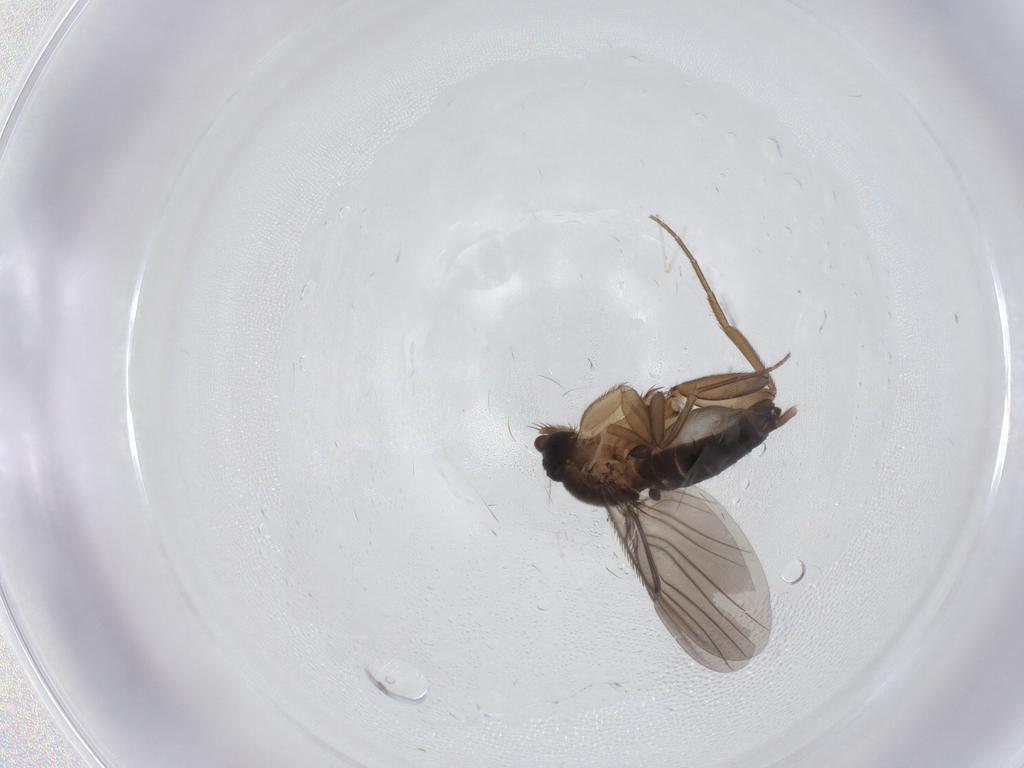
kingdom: Animalia
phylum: Arthropoda
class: Insecta
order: Diptera
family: Phoridae
